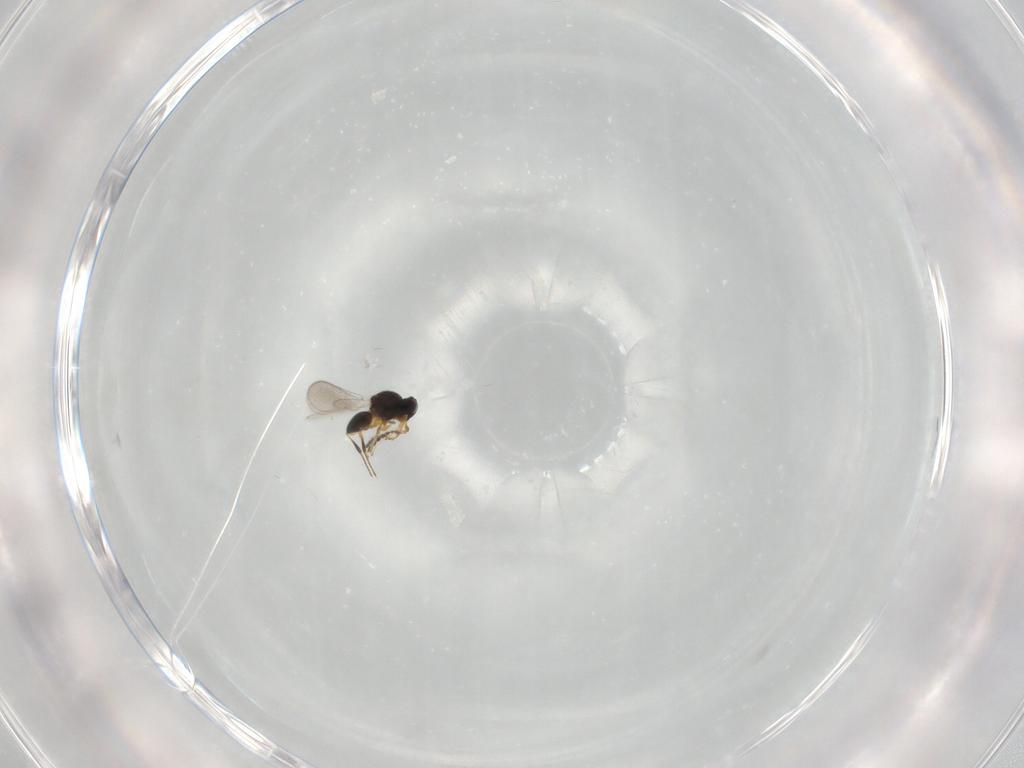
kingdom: Animalia
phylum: Arthropoda
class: Insecta
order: Hymenoptera
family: Platygastridae
